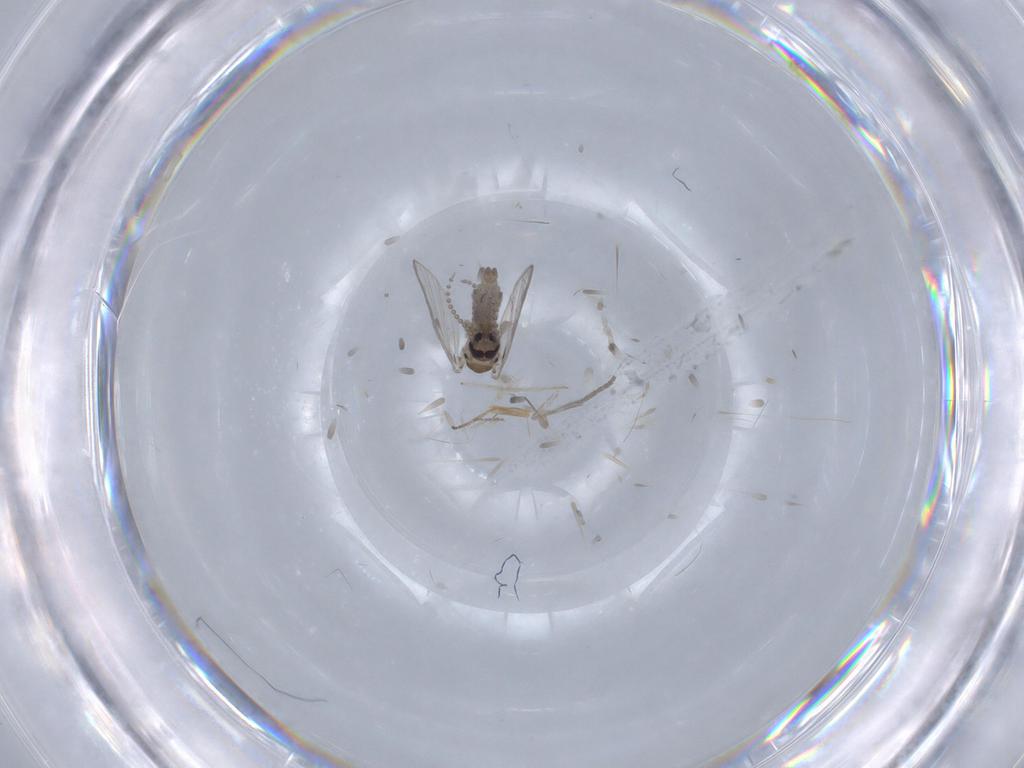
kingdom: Animalia
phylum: Arthropoda
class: Insecta
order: Diptera
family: Psychodidae
